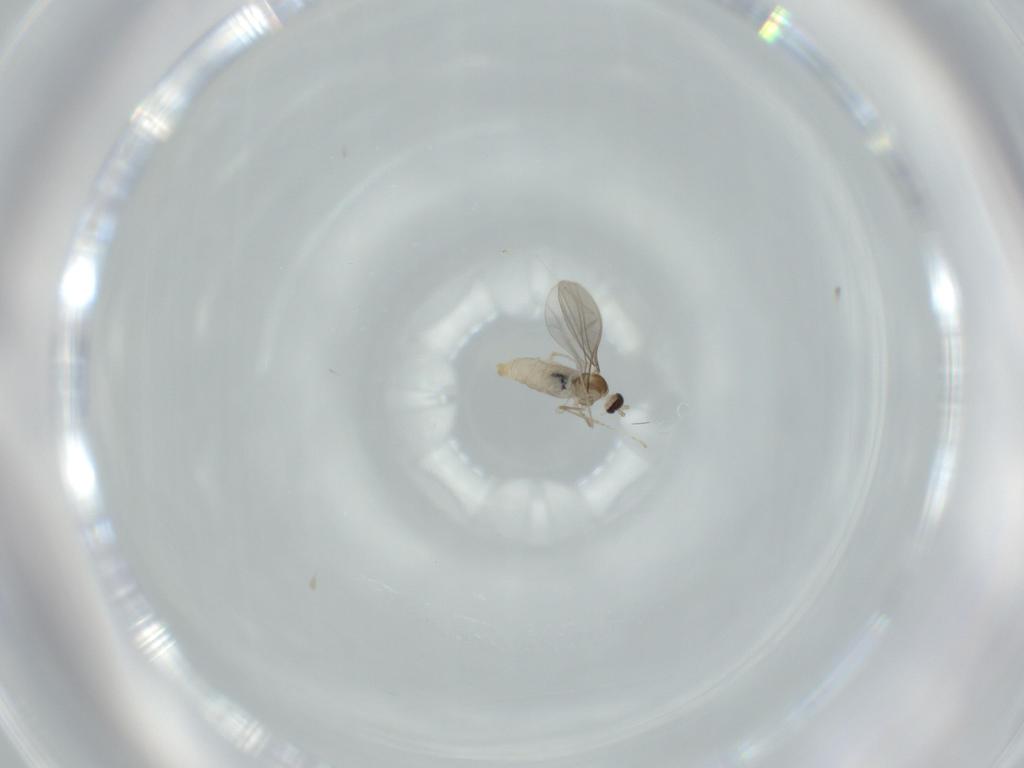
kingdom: Animalia
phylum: Arthropoda
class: Insecta
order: Diptera
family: Cecidomyiidae
